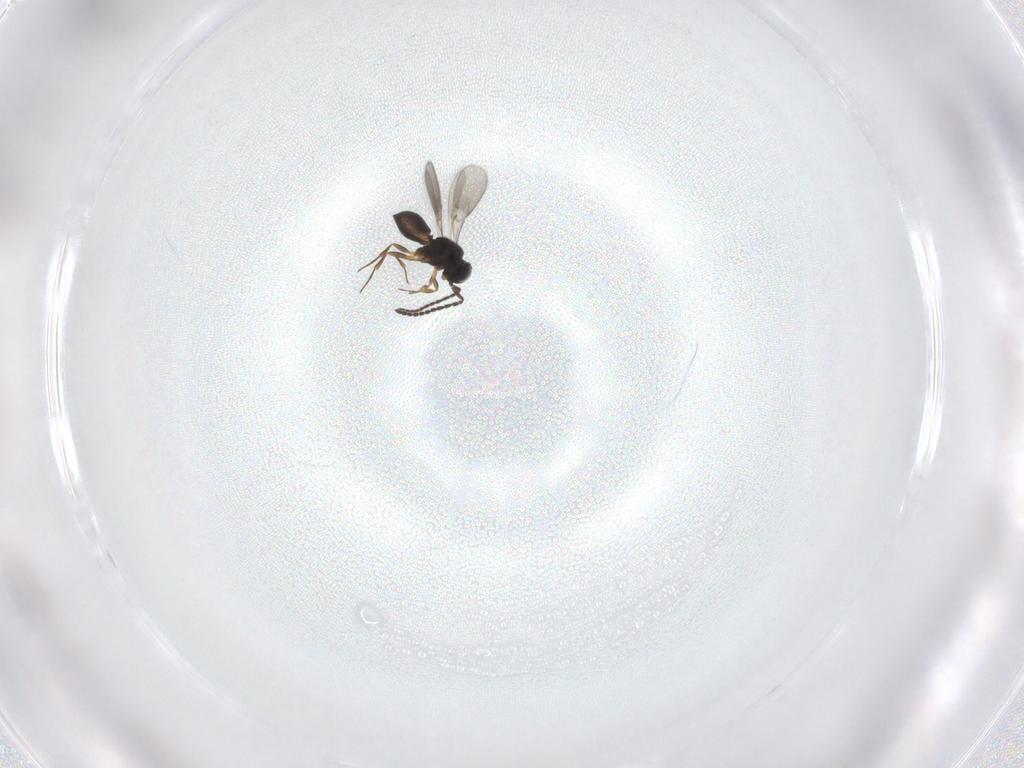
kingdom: Animalia
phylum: Arthropoda
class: Insecta
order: Hymenoptera
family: Scelionidae
